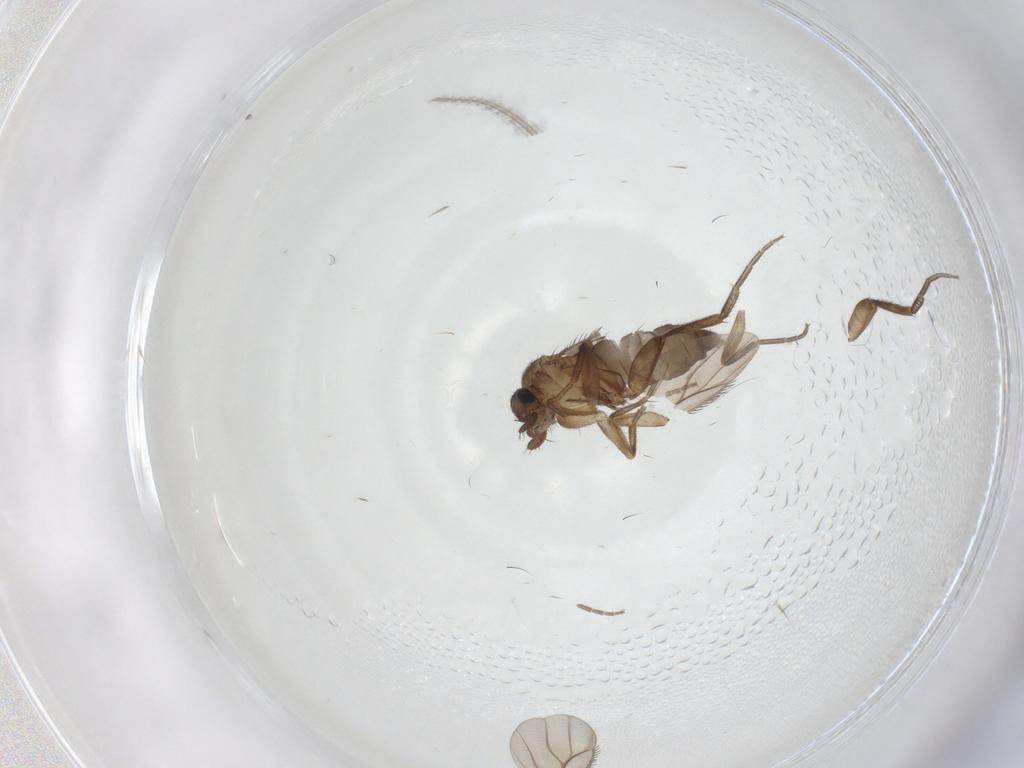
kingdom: Animalia
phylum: Arthropoda
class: Insecta
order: Diptera
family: Phoridae
